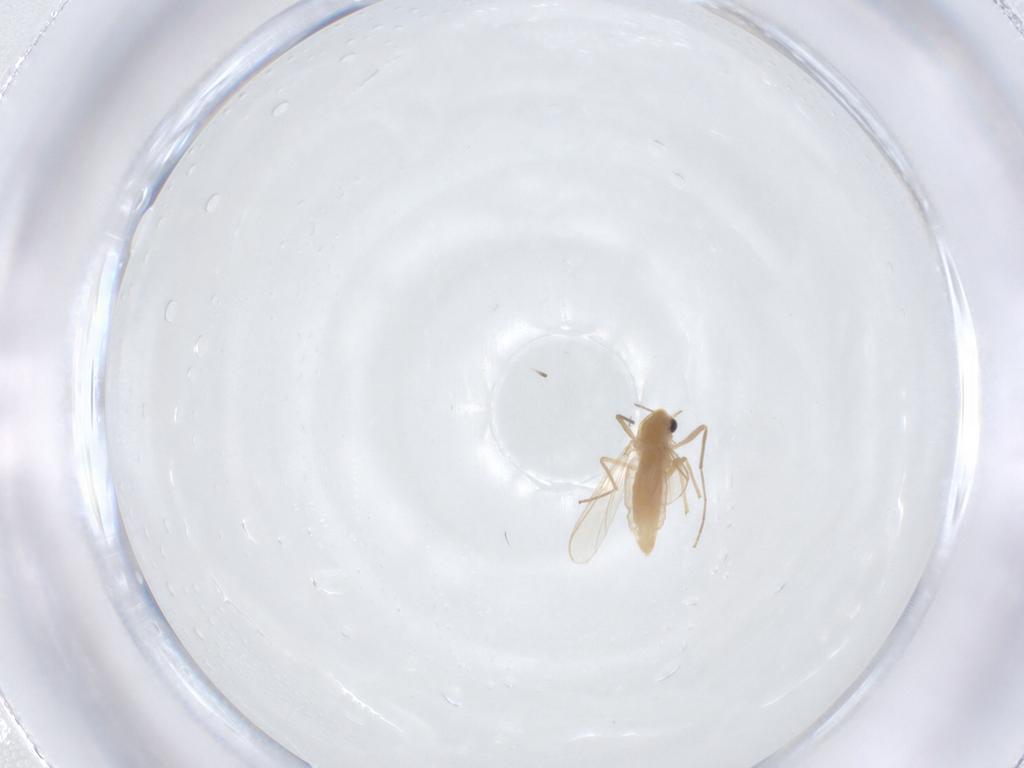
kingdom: Animalia
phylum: Arthropoda
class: Insecta
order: Diptera
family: Chironomidae
